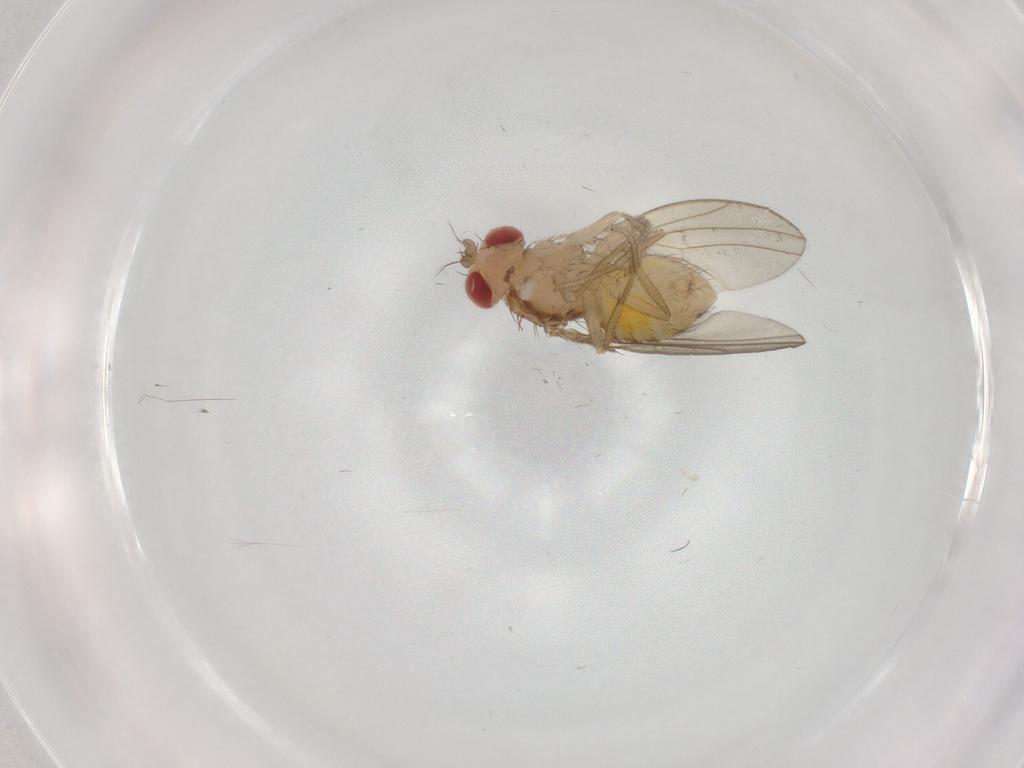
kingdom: Animalia
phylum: Arthropoda
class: Insecta
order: Diptera
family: Drosophilidae
